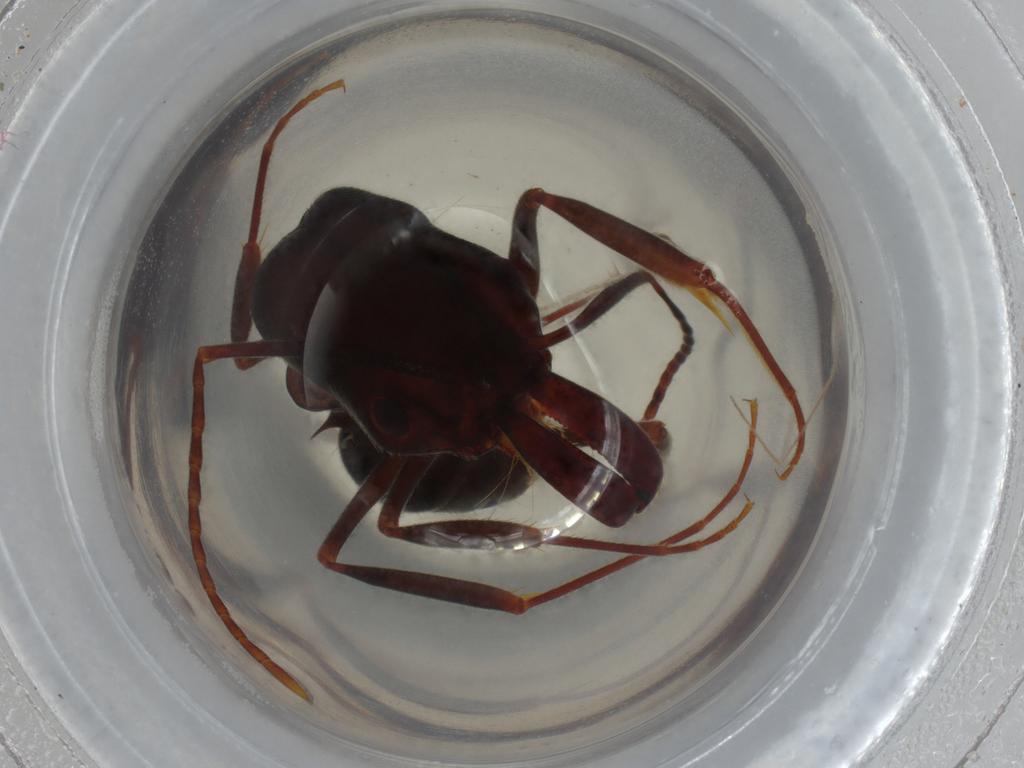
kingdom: Animalia
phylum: Arthropoda
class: Insecta
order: Hymenoptera
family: Formicidae
